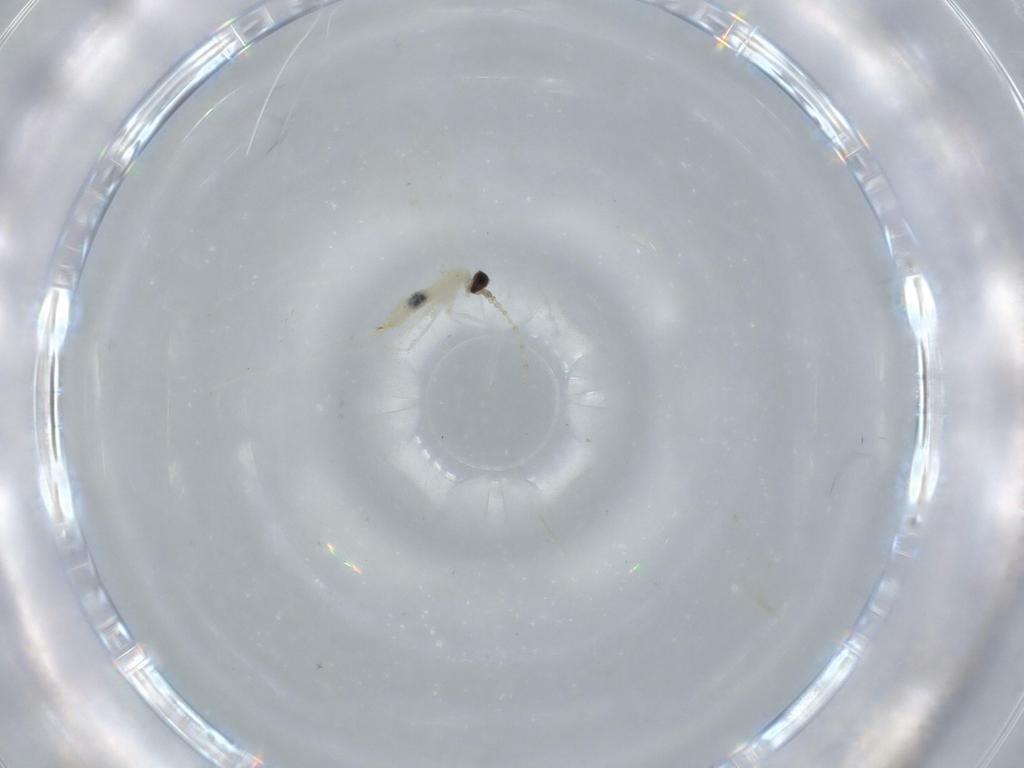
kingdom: Animalia
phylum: Arthropoda
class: Insecta
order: Diptera
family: Cecidomyiidae
